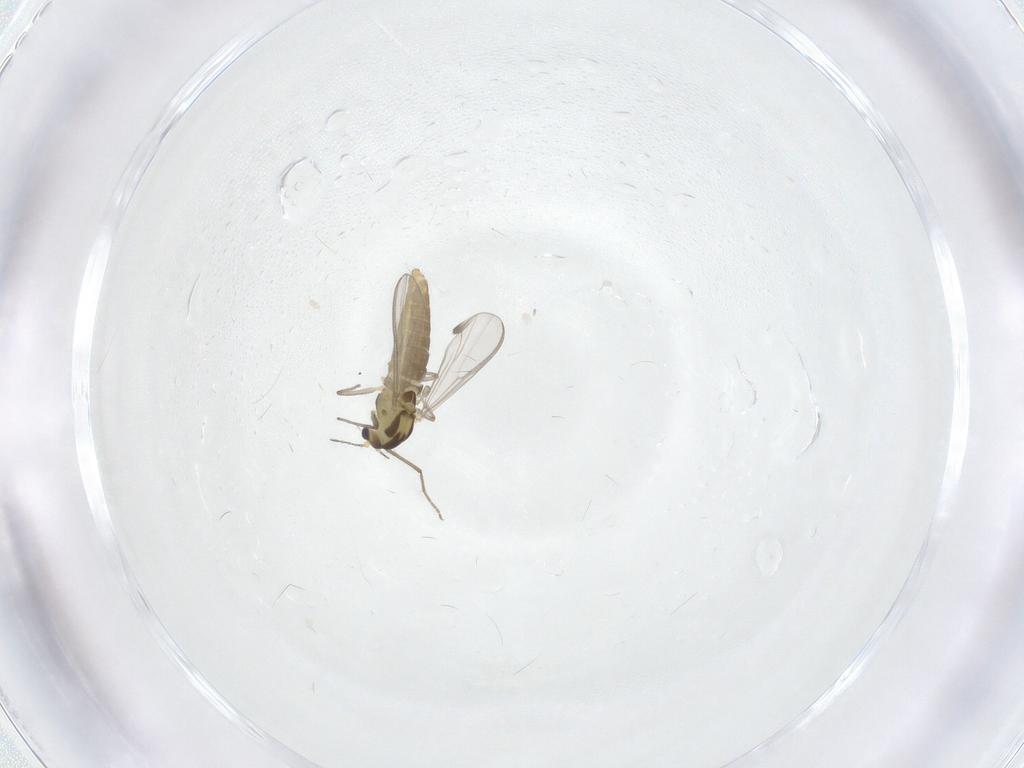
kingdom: Animalia
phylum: Arthropoda
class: Insecta
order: Diptera
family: Chironomidae
